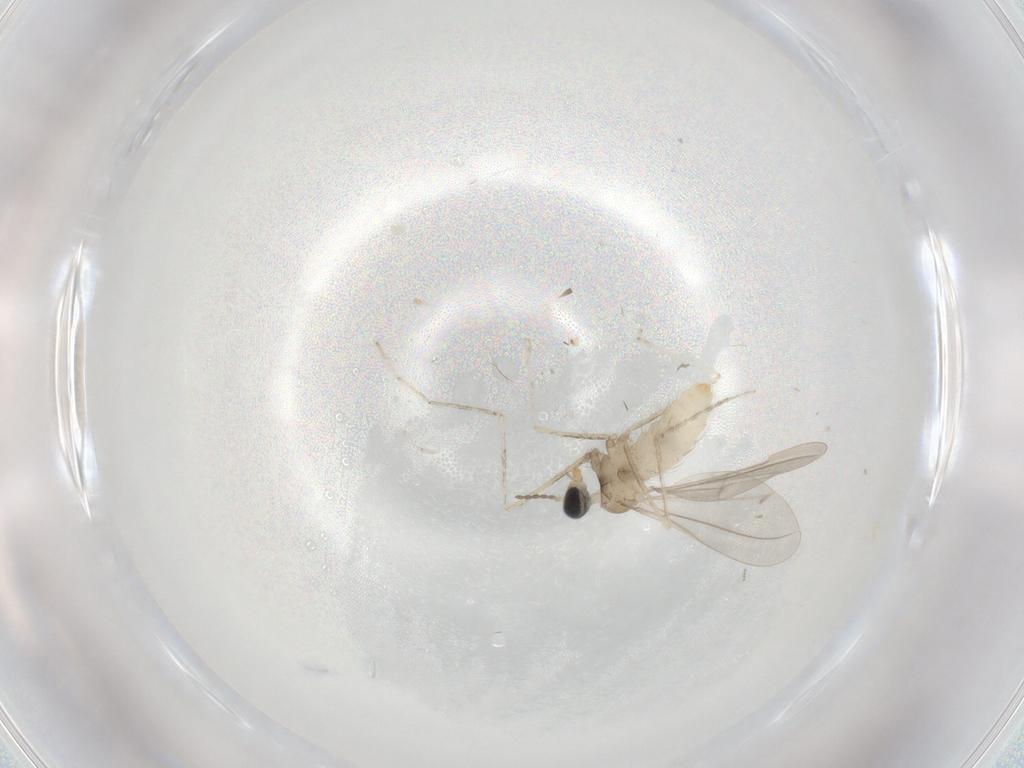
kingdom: Animalia
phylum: Arthropoda
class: Insecta
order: Diptera
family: Cecidomyiidae
